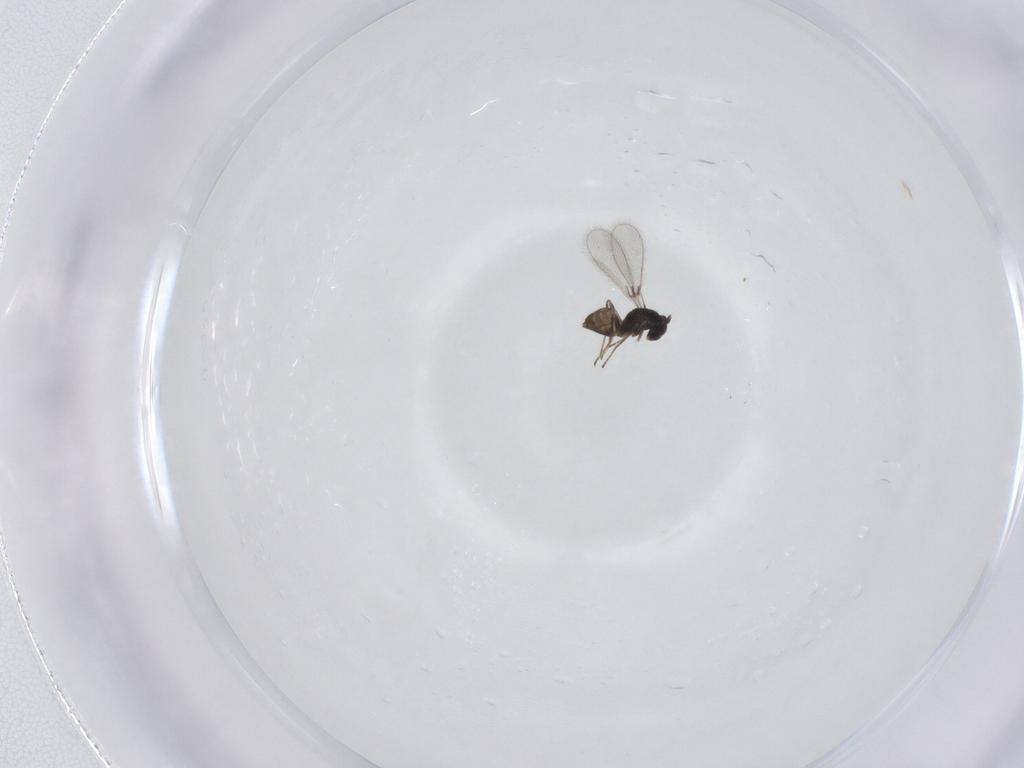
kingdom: Animalia
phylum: Arthropoda
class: Insecta
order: Hymenoptera
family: Mymaridae
